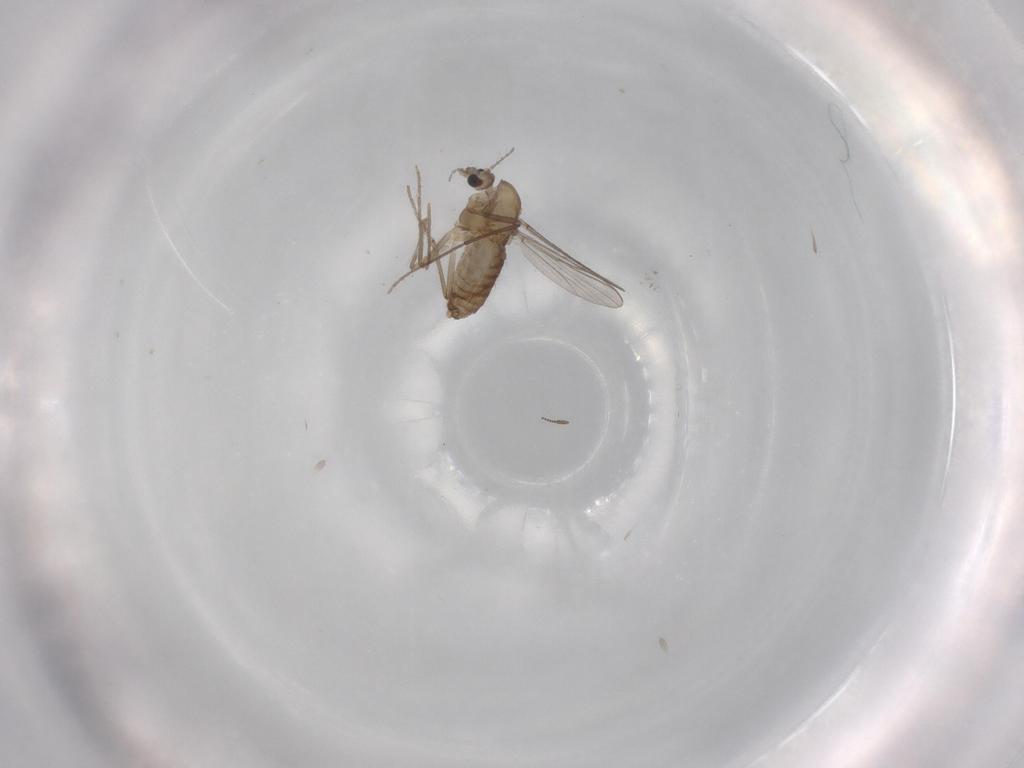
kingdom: Animalia
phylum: Arthropoda
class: Insecta
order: Diptera
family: Chironomidae
